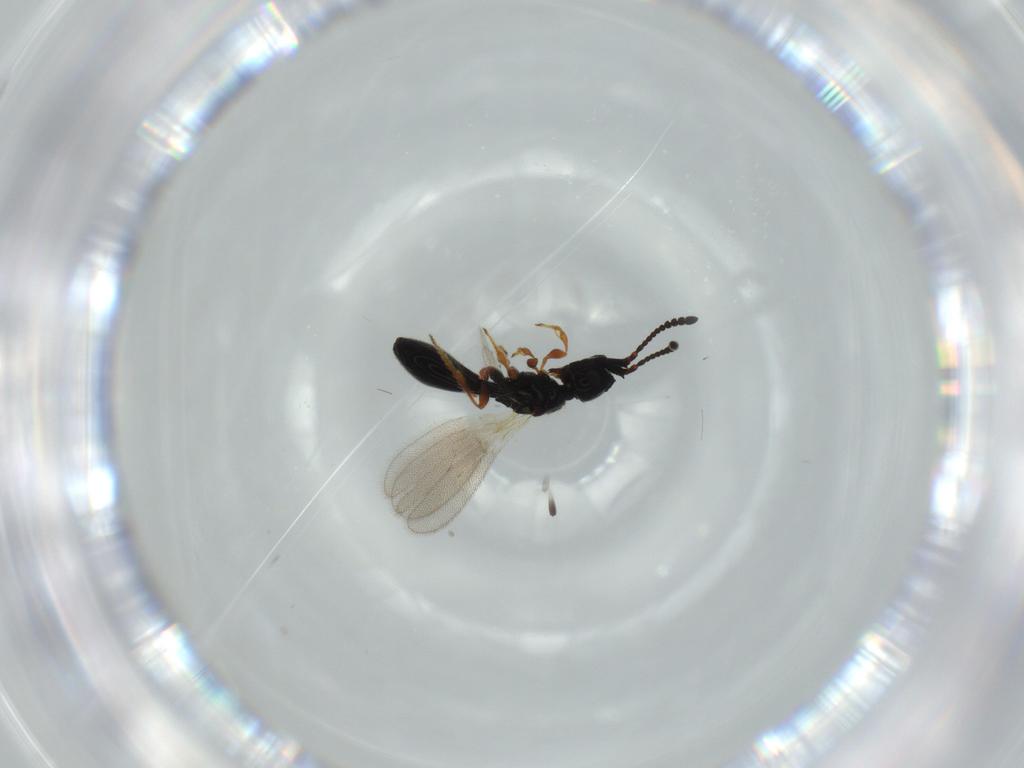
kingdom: Animalia
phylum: Arthropoda
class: Insecta
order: Hymenoptera
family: Diapriidae
